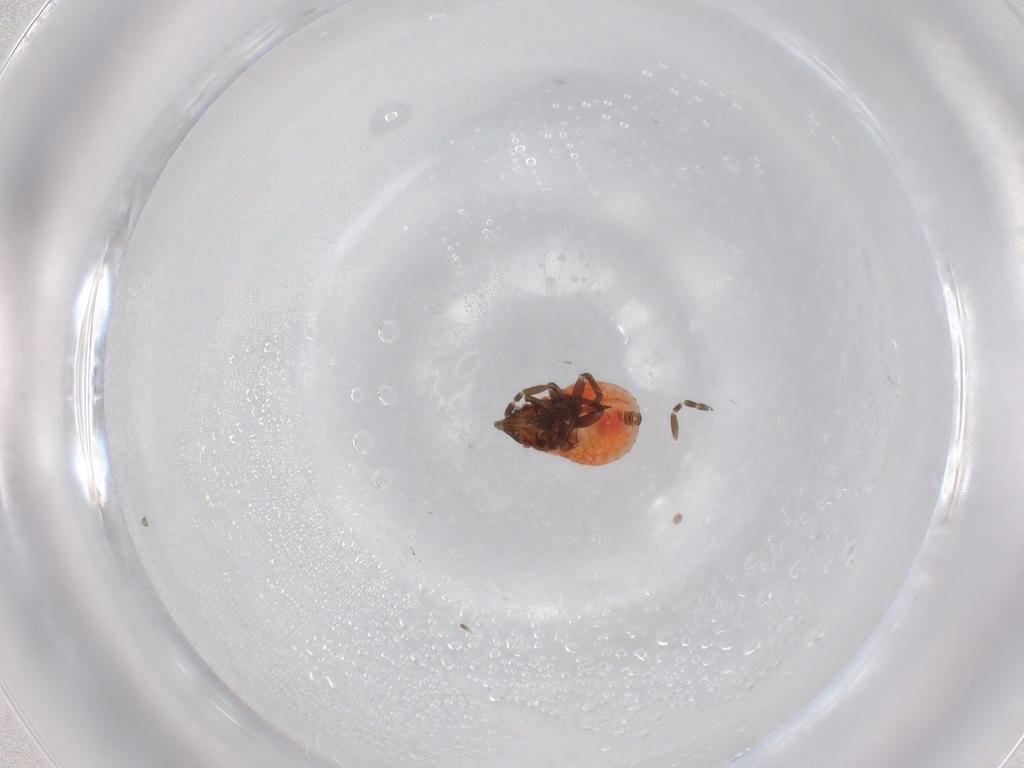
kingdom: Animalia
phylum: Arthropoda
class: Insecta
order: Hemiptera
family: Lygaeidae
